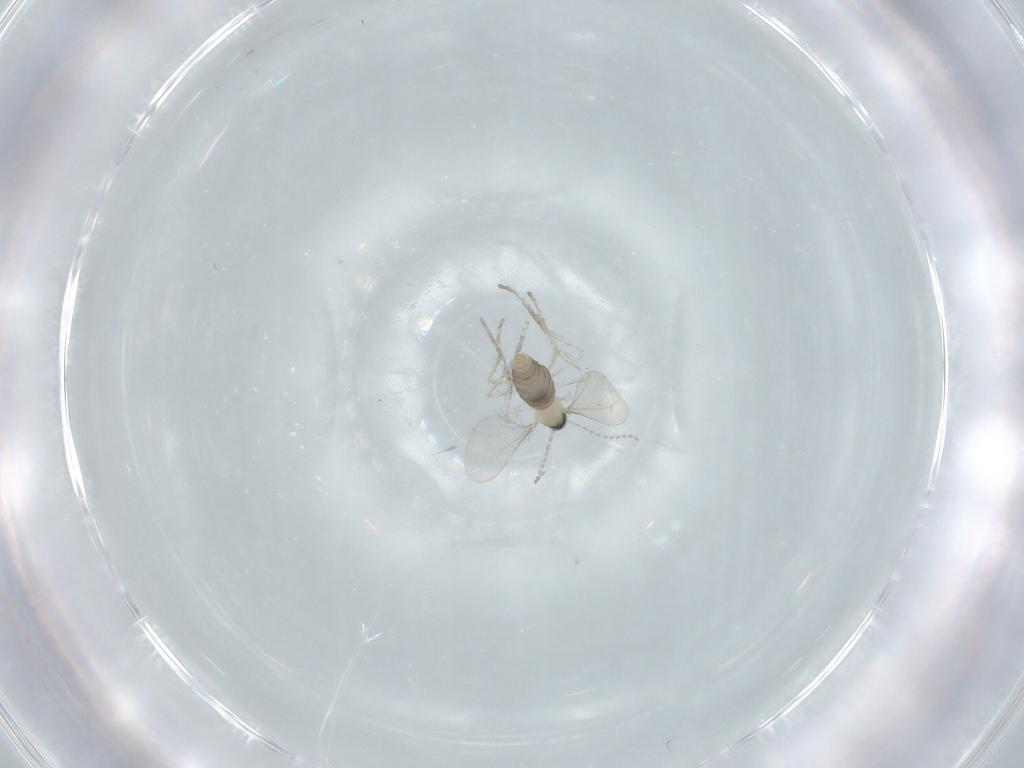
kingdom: Animalia
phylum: Arthropoda
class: Insecta
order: Diptera
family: Cecidomyiidae
